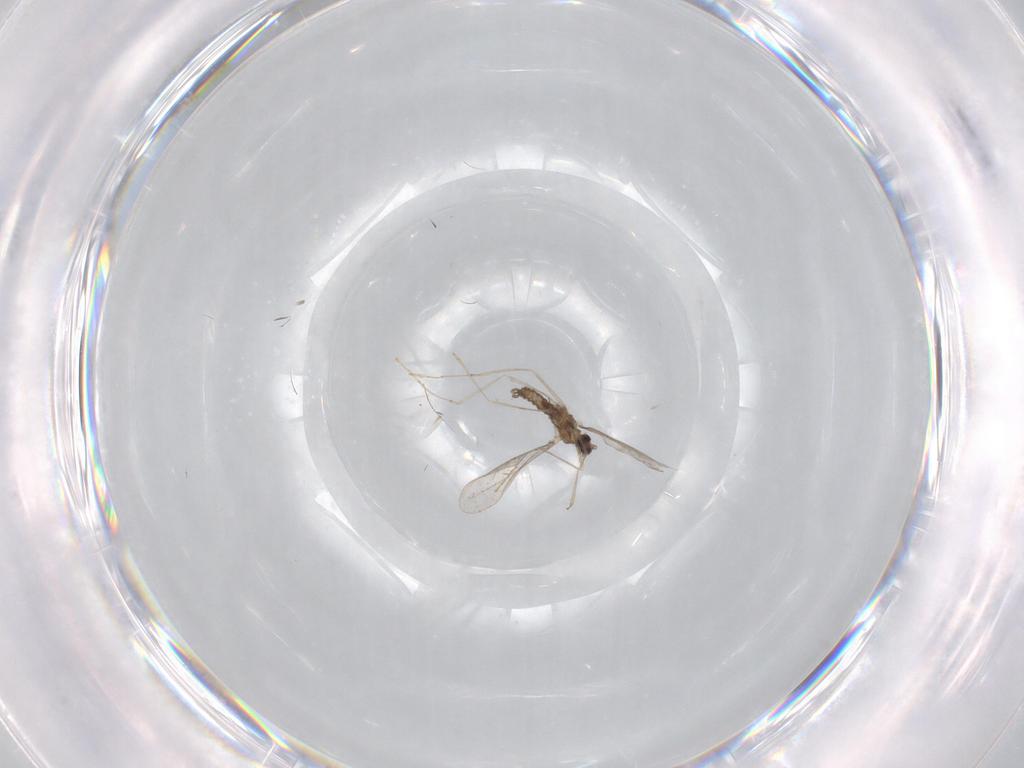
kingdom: Animalia
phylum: Arthropoda
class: Insecta
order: Diptera
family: Cecidomyiidae
